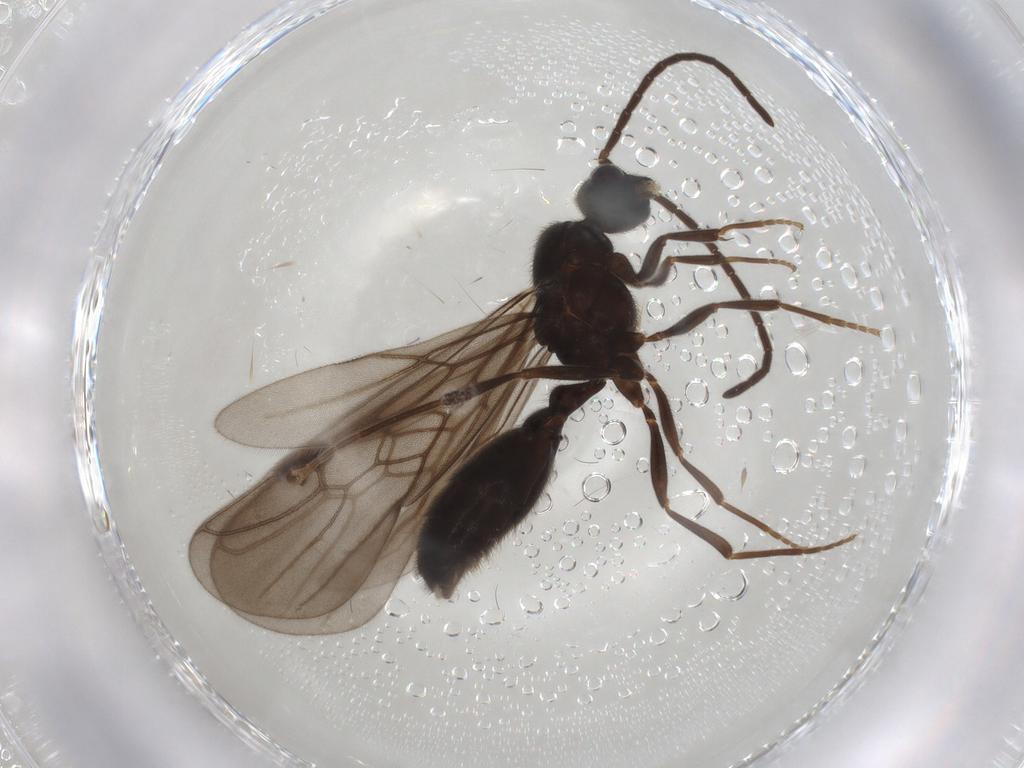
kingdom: Animalia
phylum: Arthropoda
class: Insecta
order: Hymenoptera
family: Formicidae
